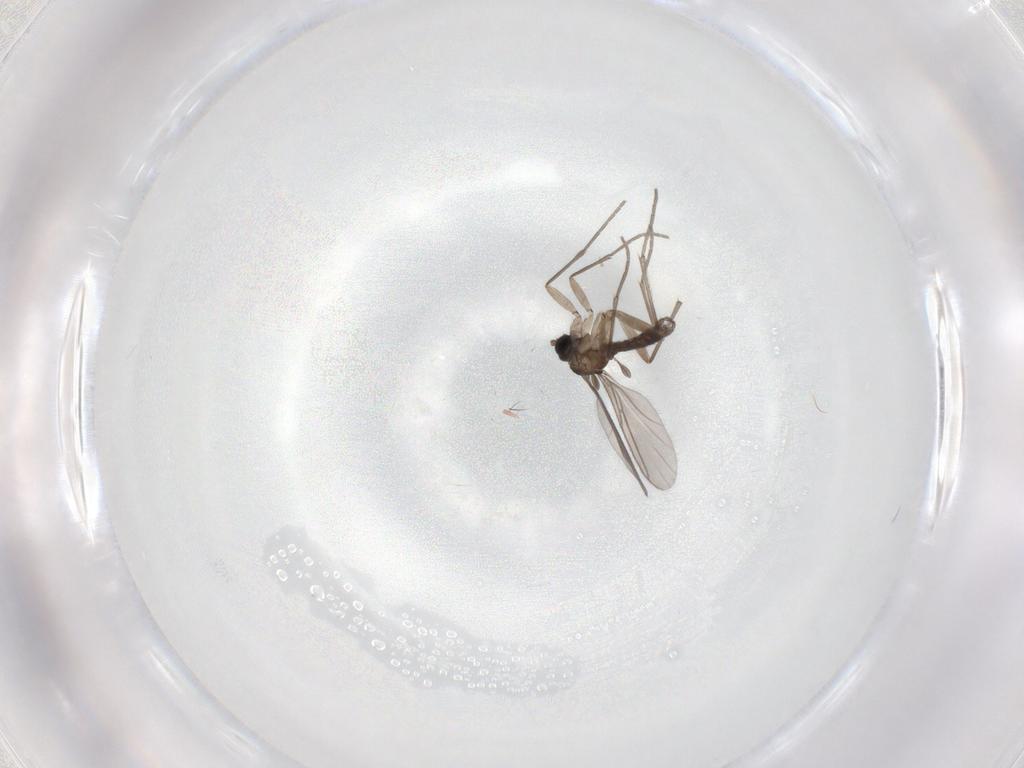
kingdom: Animalia
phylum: Arthropoda
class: Insecta
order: Diptera
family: Sciaridae
